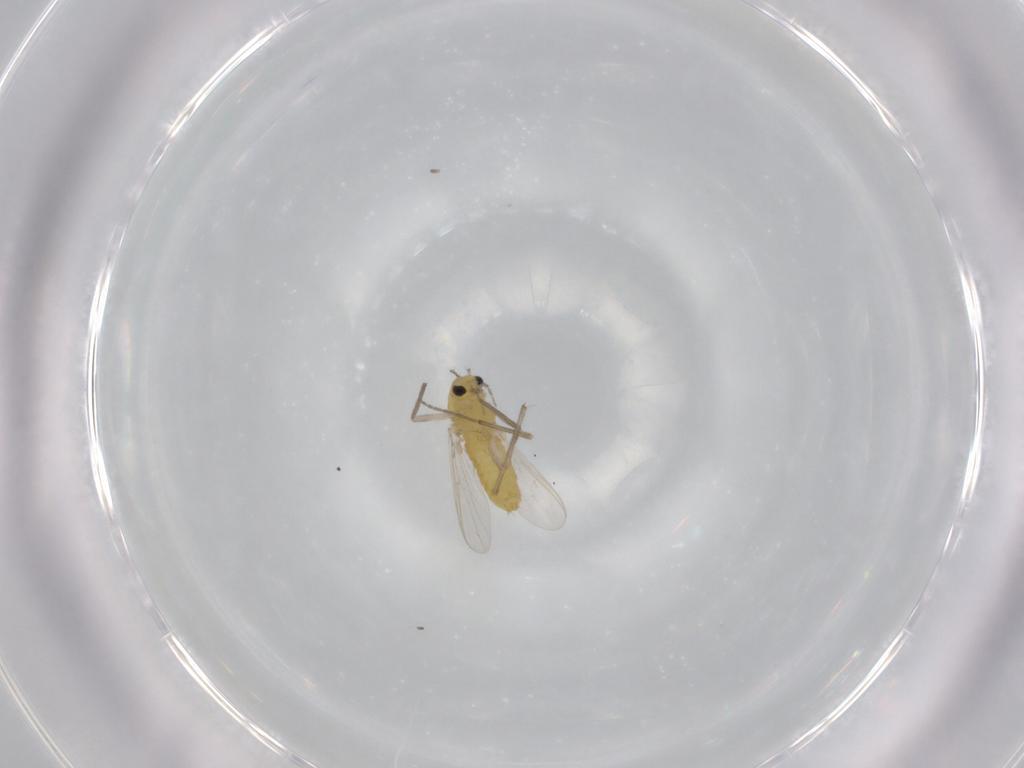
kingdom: Animalia
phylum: Arthropoda
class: Insecta
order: Diptera
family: Chironomidae
